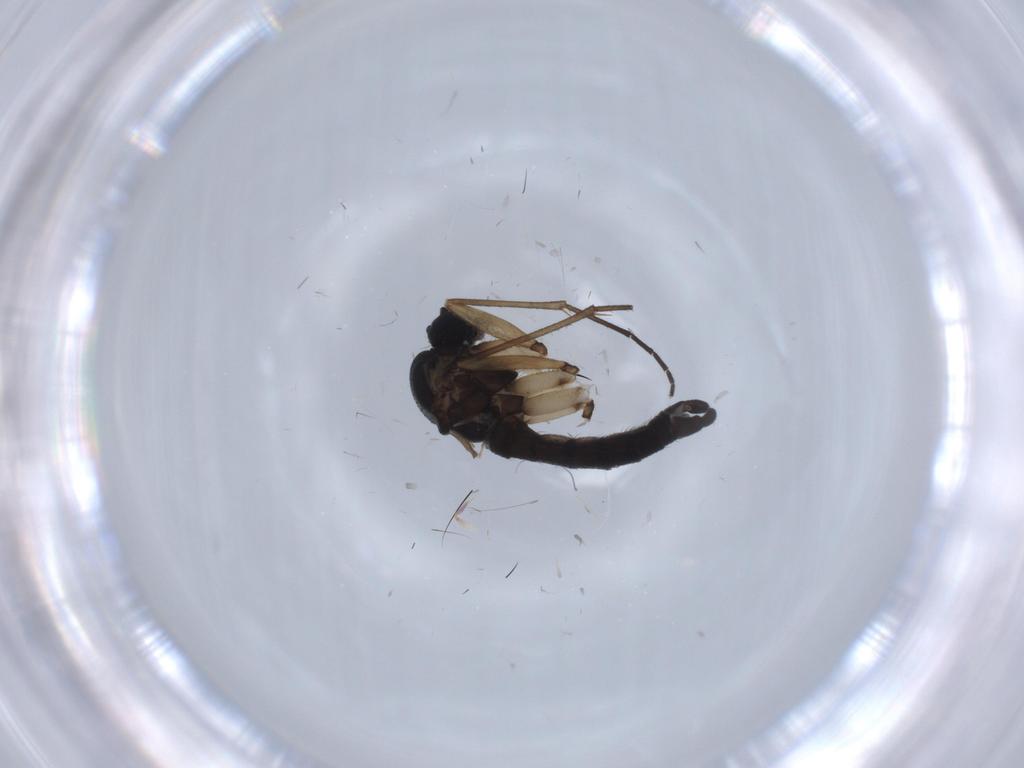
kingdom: Animalia
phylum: Arthropoda
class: Insecta
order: Diptera
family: Sciaridae
